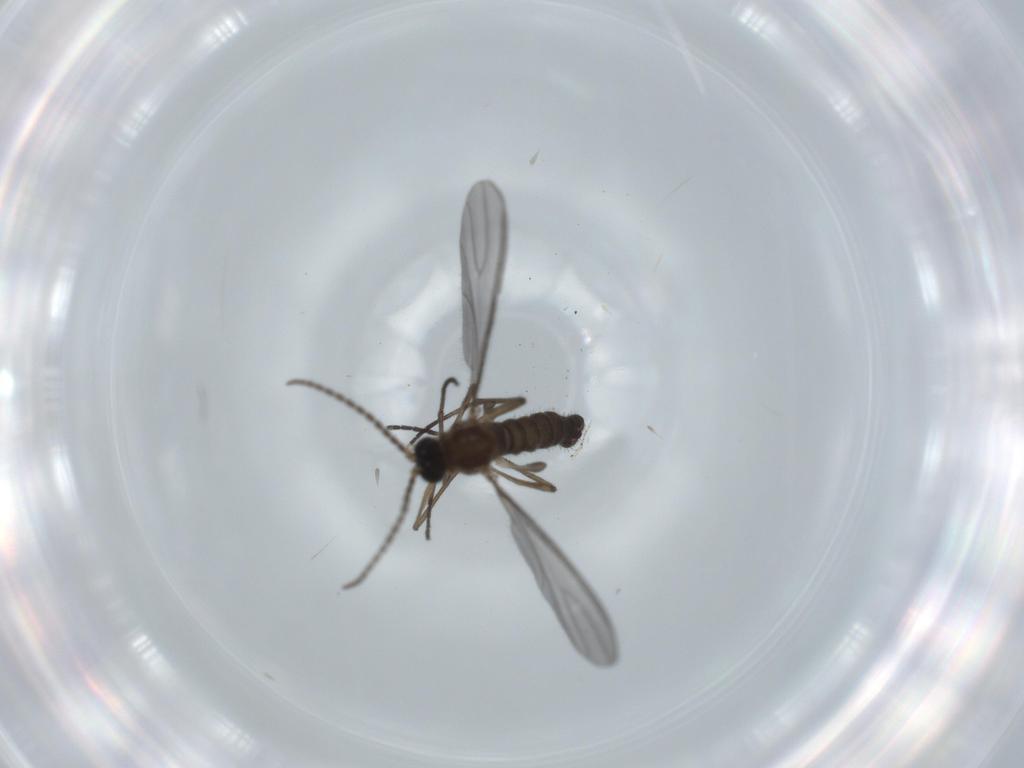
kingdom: Animalia
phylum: Arthropoda
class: Insecta
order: Diptera
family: Sciaridae
